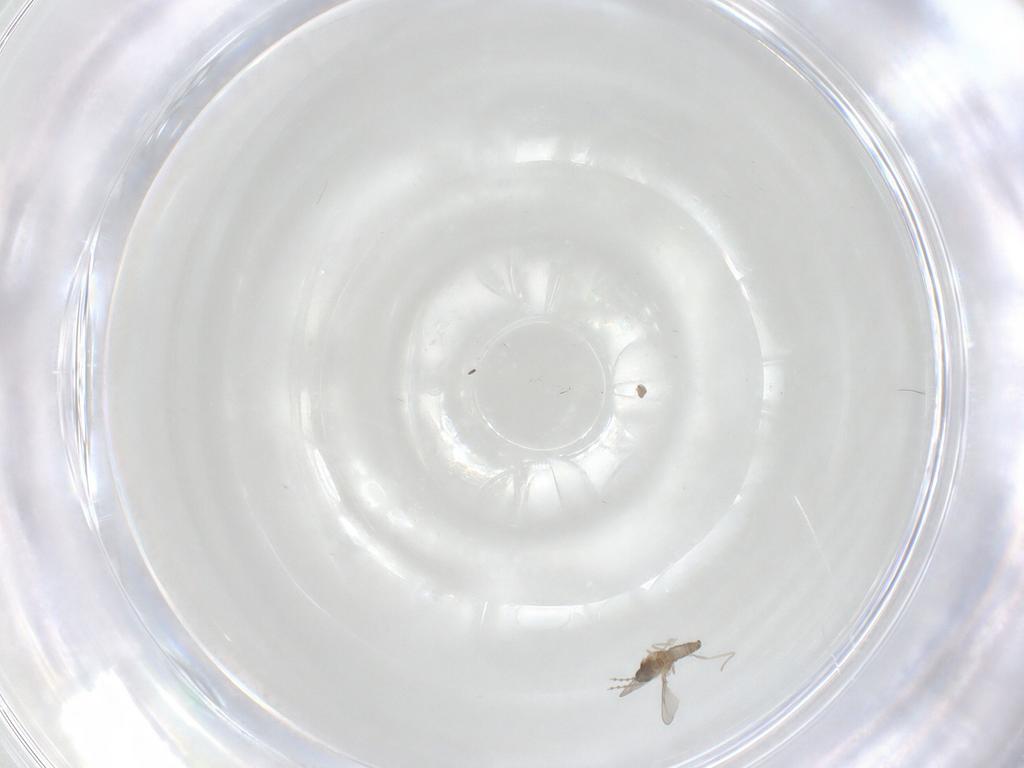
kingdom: Animalia
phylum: Arthropoda
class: Insecta
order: Diptera
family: Cecidomyiidae
